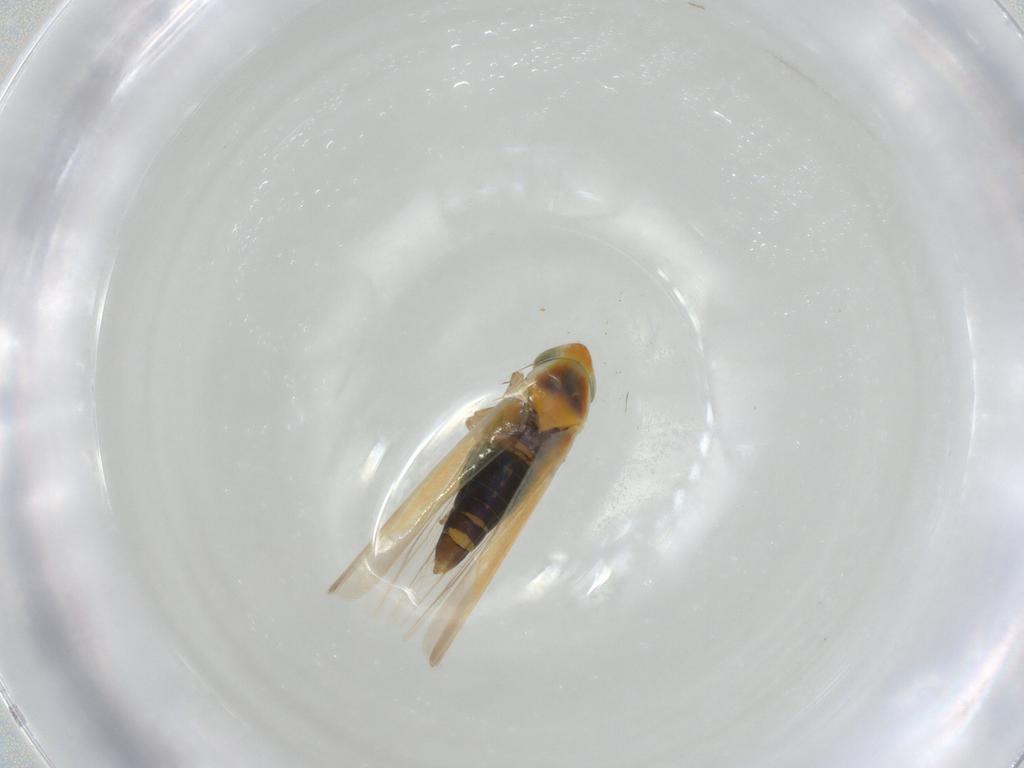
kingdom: Animalia
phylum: Arthropoda
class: Insecta
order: Hemiptera
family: Cicadellidae
